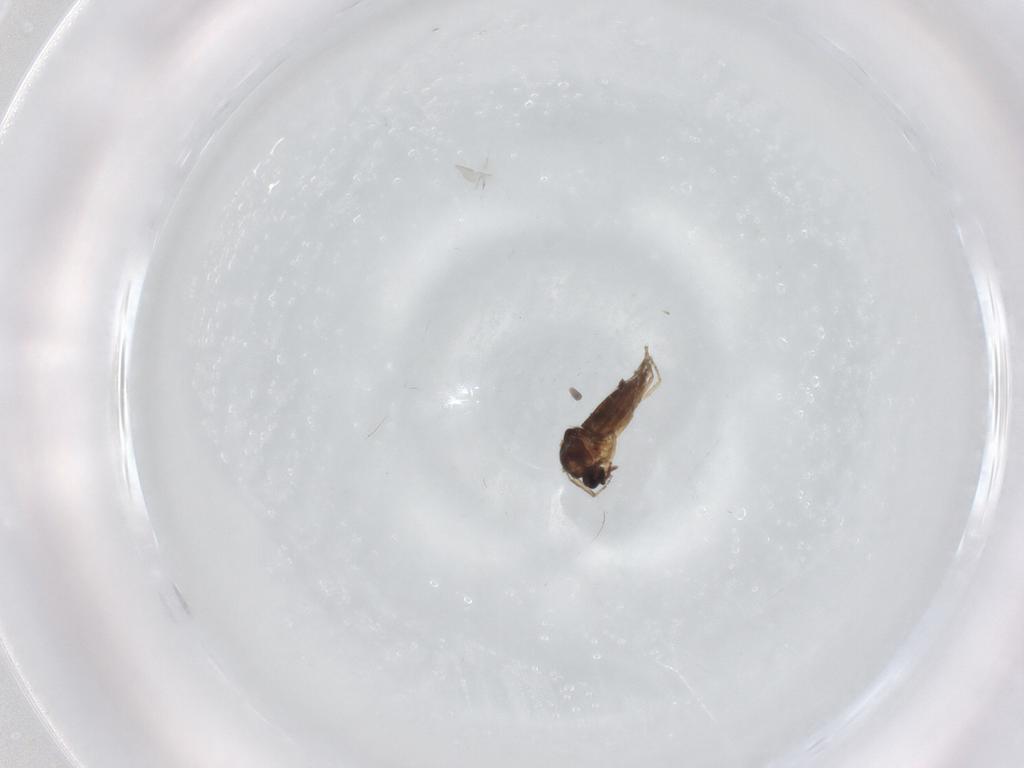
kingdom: Animalia
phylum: Arthropoda
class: Insecta
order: Diptera
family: Chironomidae
